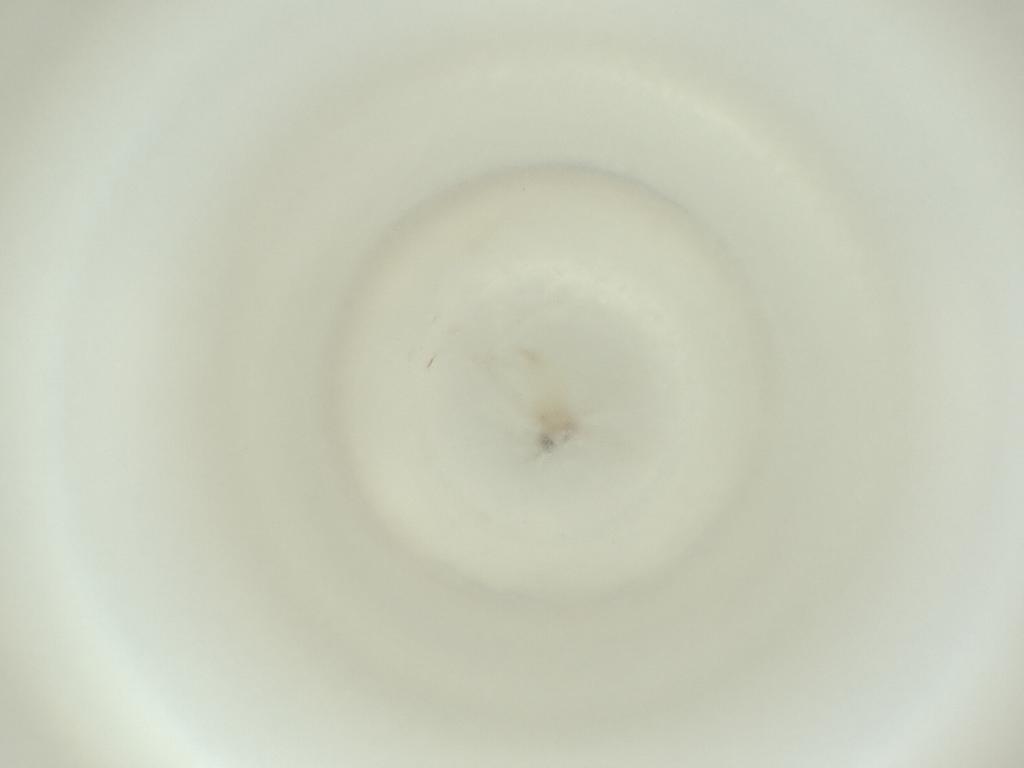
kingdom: Animalia
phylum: Arthropoda
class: Insecta
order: Diptera
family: Cecidomyiidae
